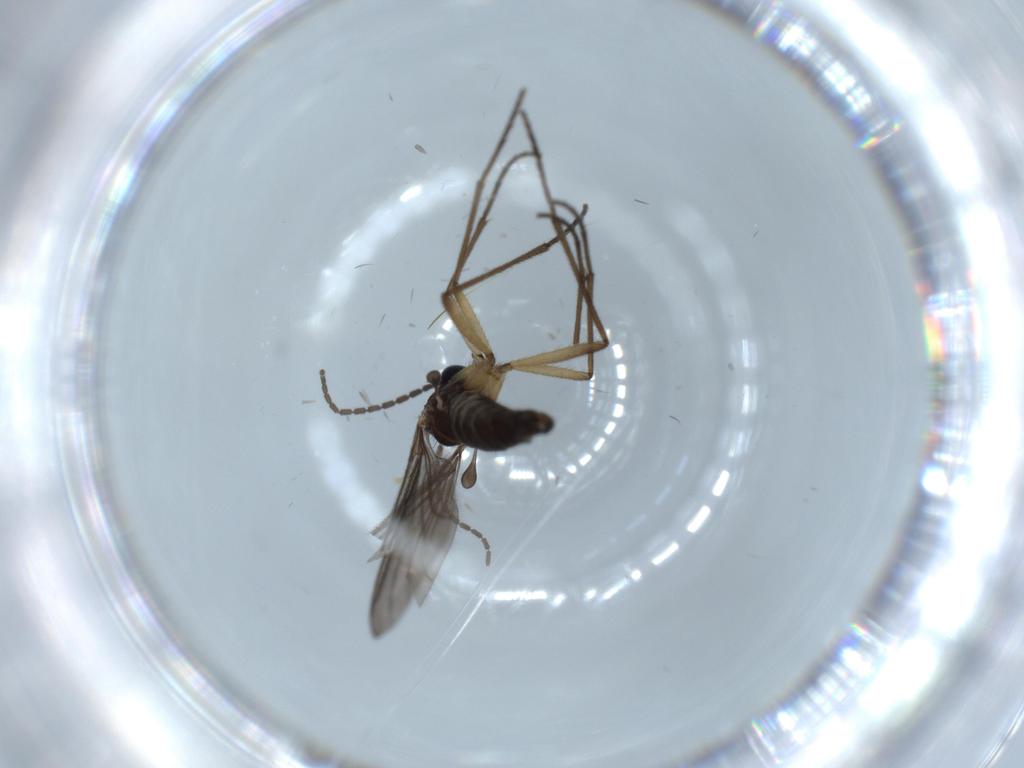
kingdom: Animalia
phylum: Arthropoda
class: Insecta
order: Diptera
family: Sciaridae
